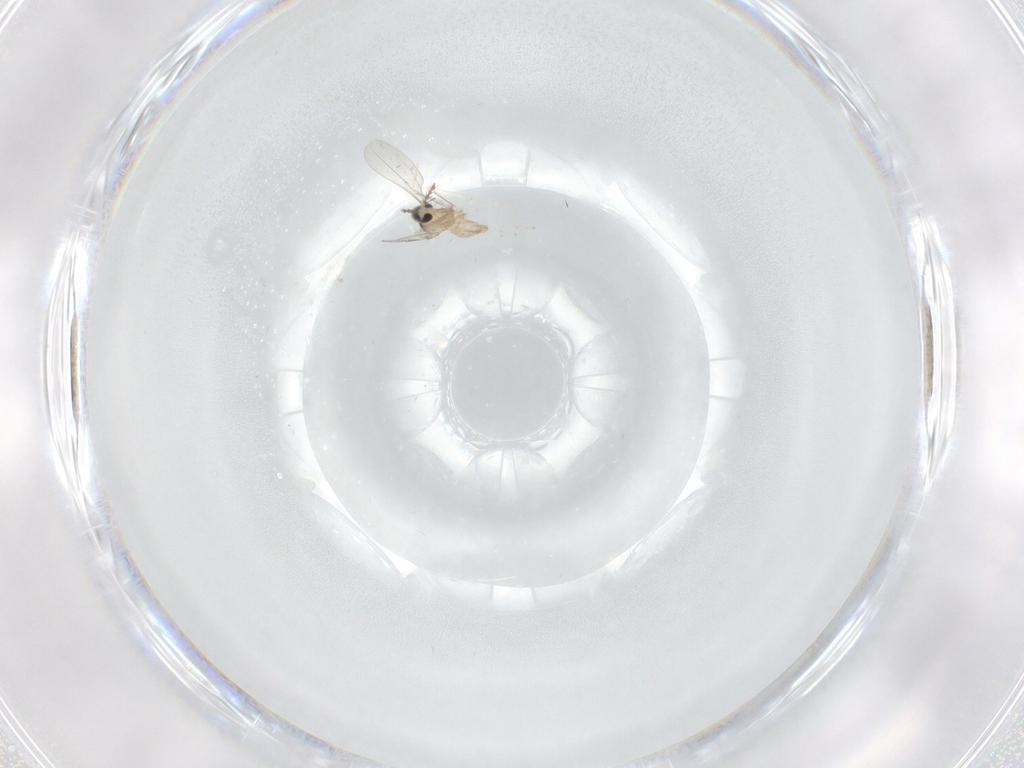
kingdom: Animalia
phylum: Arthropoda
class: Insecta
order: Diptera
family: Cecidomyiidae
